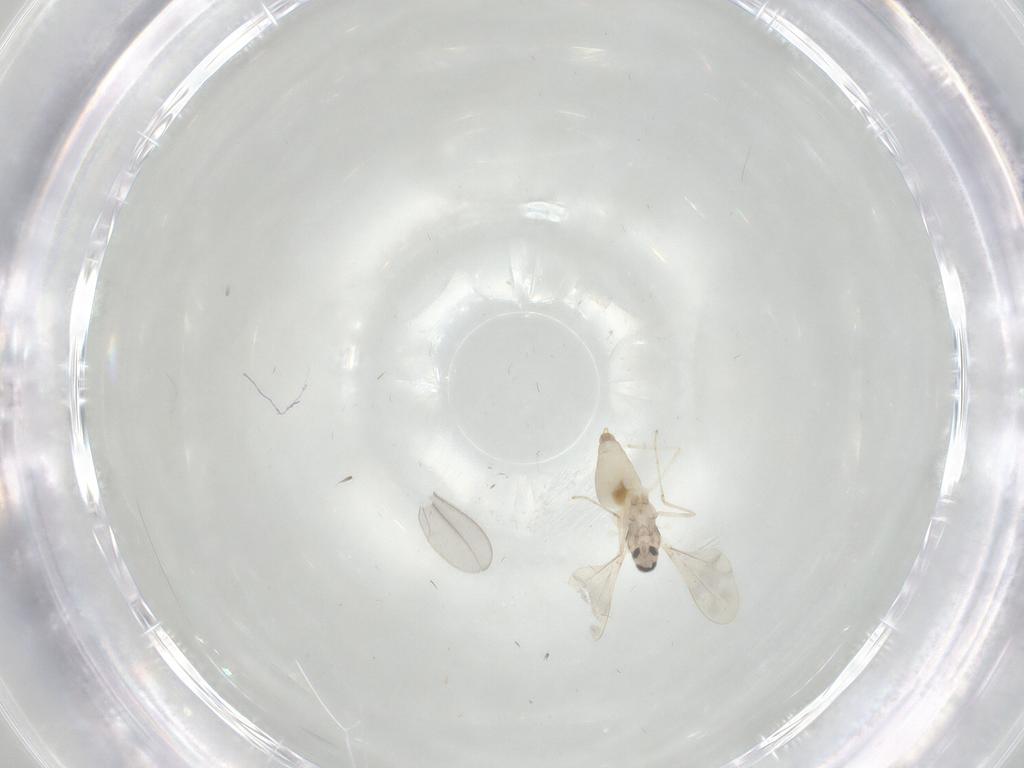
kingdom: Animalia
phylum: Arthropoda
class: Insecta
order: Diptera
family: Cecidomyiidae
